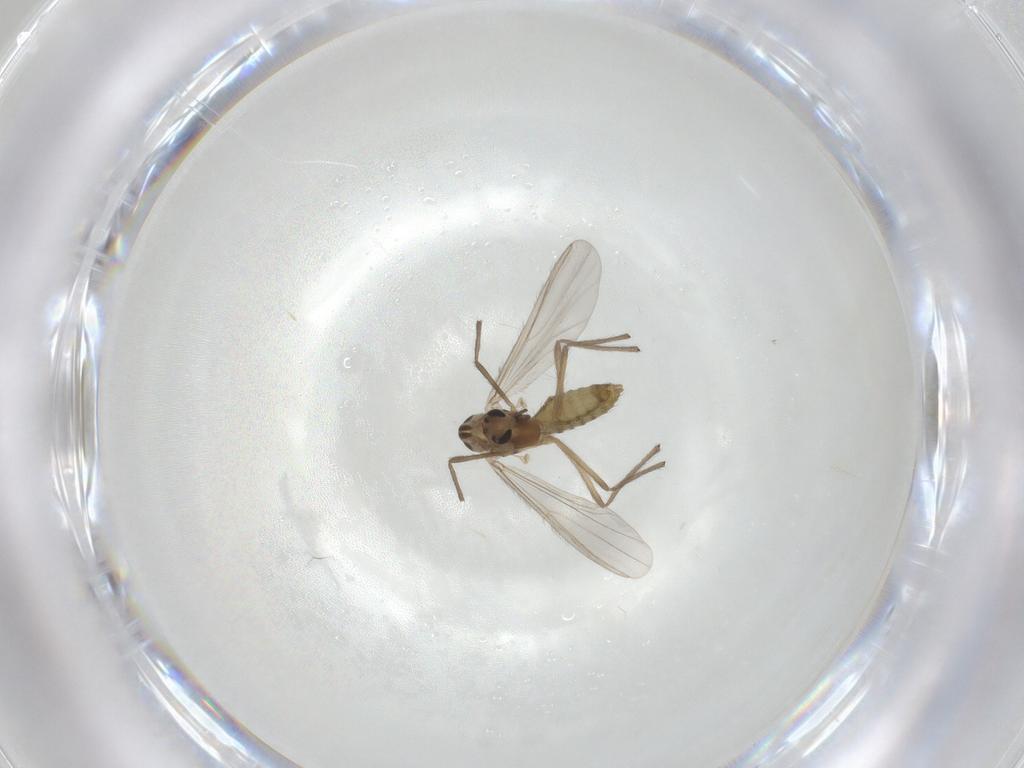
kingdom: Animalia
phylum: Arthropoda
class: Insecta
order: Diptera
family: Chironomidae
